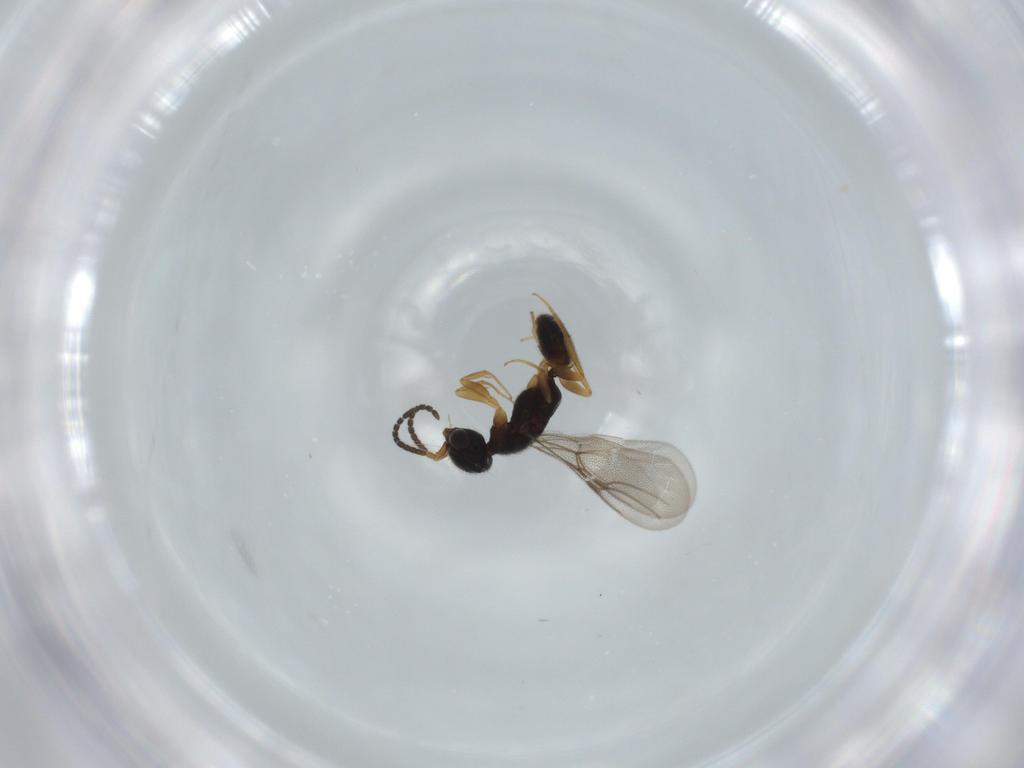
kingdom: Animalia
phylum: Arthropoda
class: Insecta
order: Hymenoptera
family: Bethylidae
